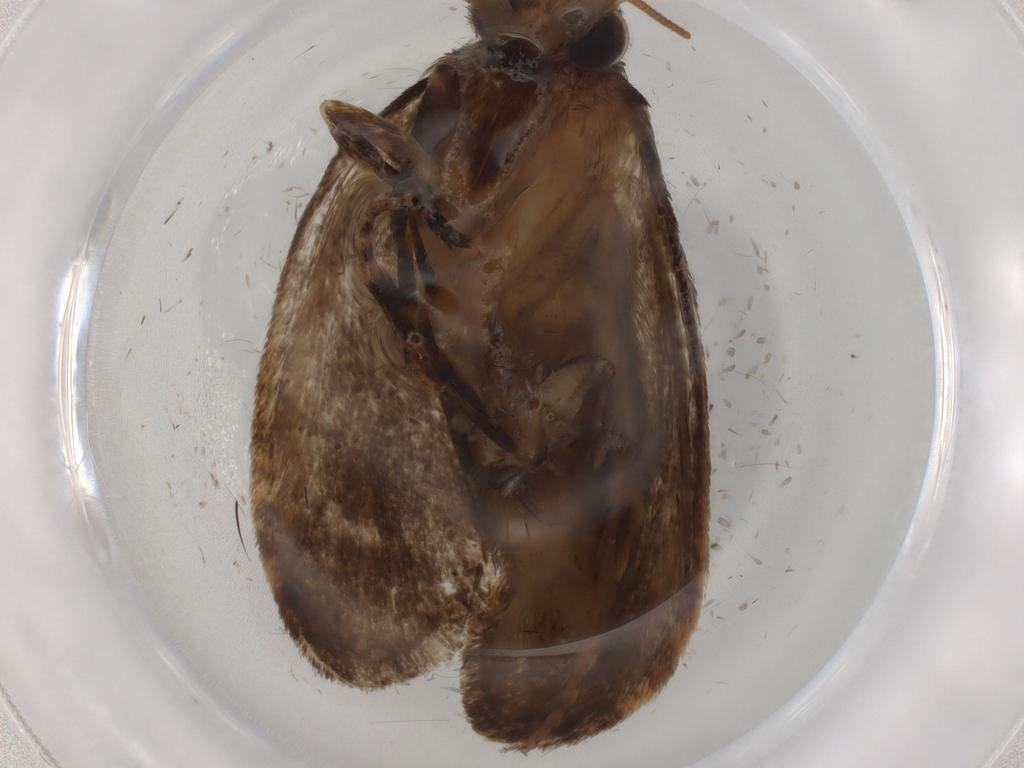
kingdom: Animalia
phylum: Arthropoda
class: Insecta
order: Lepidoptera
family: Tineidae
